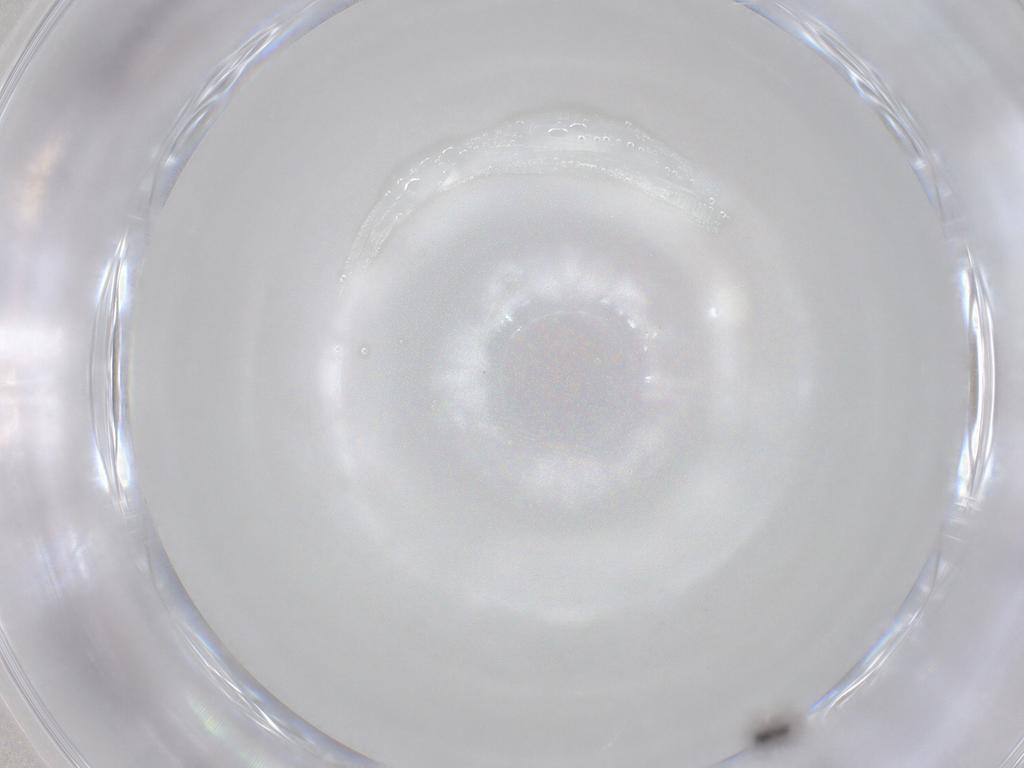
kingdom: Animalia
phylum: Arthropoda
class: Insecta
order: Diptera
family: Cecidomyiidae
